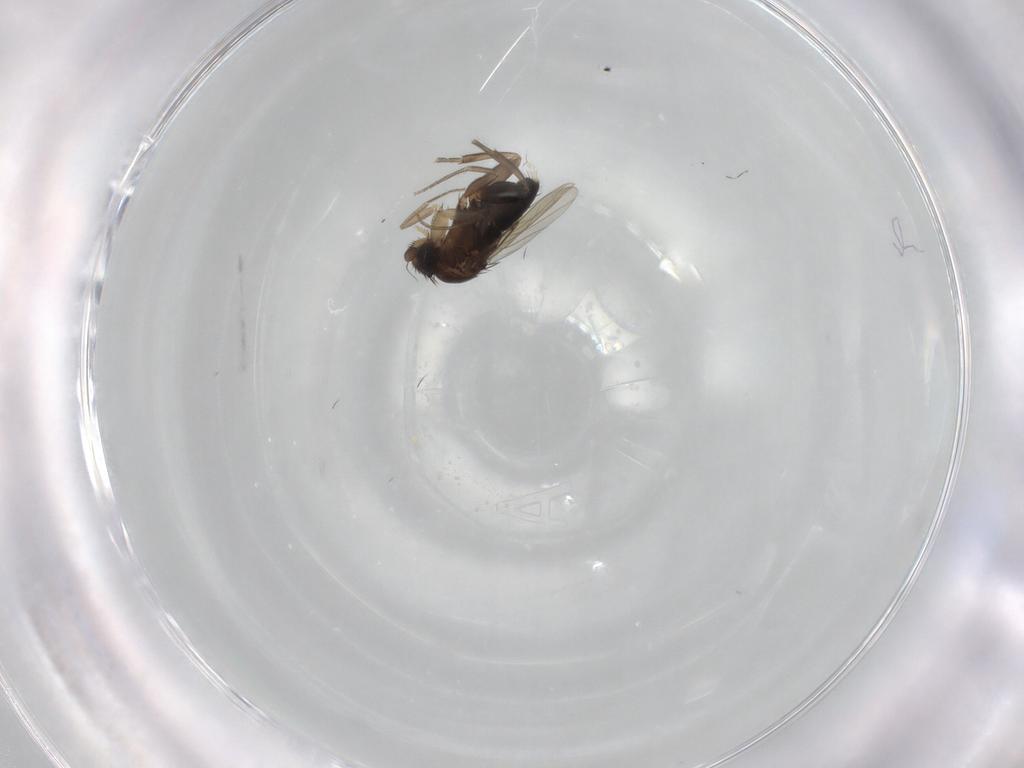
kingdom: Animalia
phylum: Arthropoda
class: Insecta
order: Diptera
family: Phoridae
